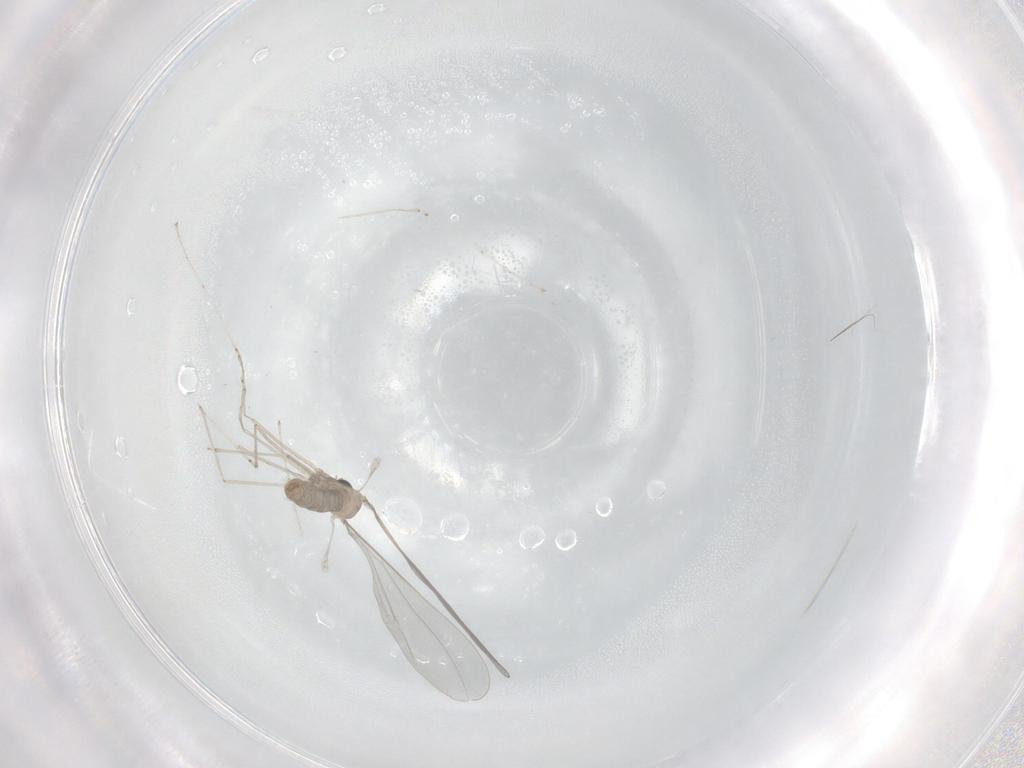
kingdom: Animalia
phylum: Arthropoda
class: Insecta
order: Diptera
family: Cecidomyiidae
